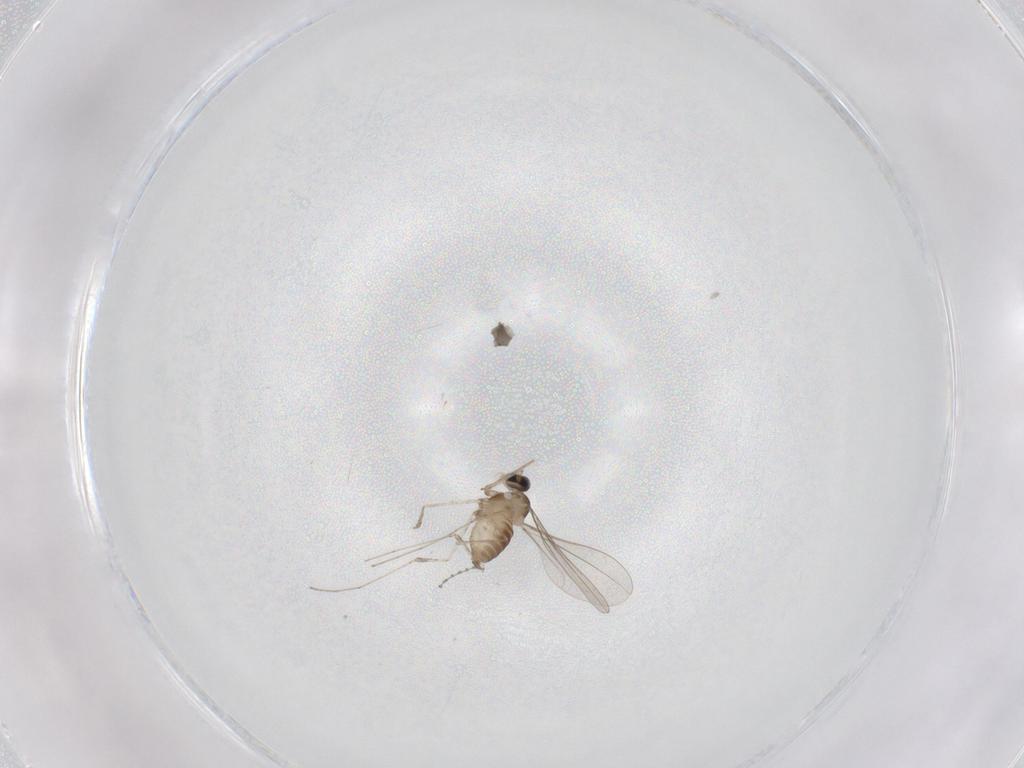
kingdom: Animalia
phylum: Arthropoda
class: Insecta
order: Diptera
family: Cecidomyiidae
